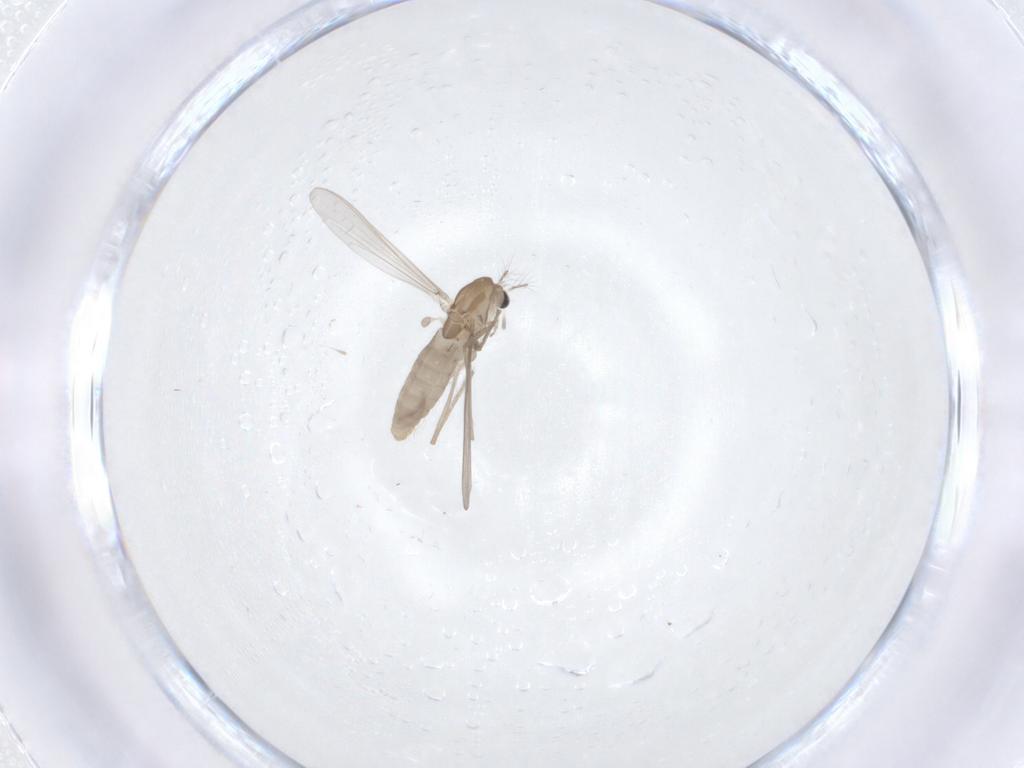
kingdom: Animalia
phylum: Arthropoda
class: Insecta
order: Diptera
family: Chironomidae
